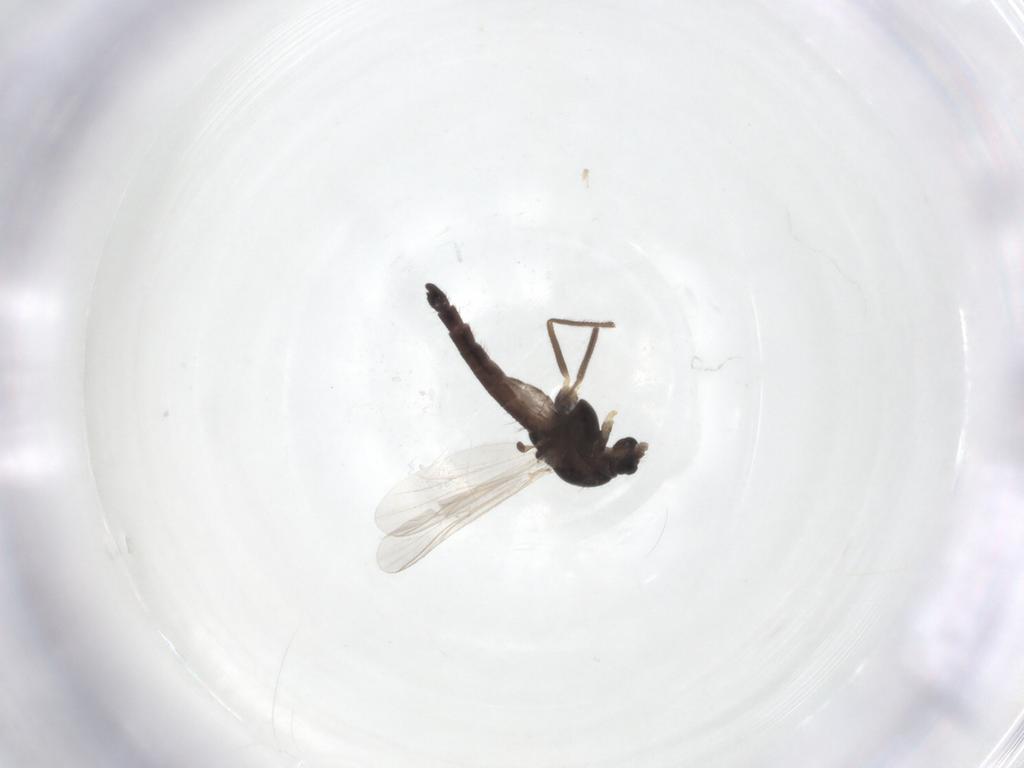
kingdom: Animalia
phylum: Arthropoda
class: Insecta
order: Diptera
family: Chironomidae
